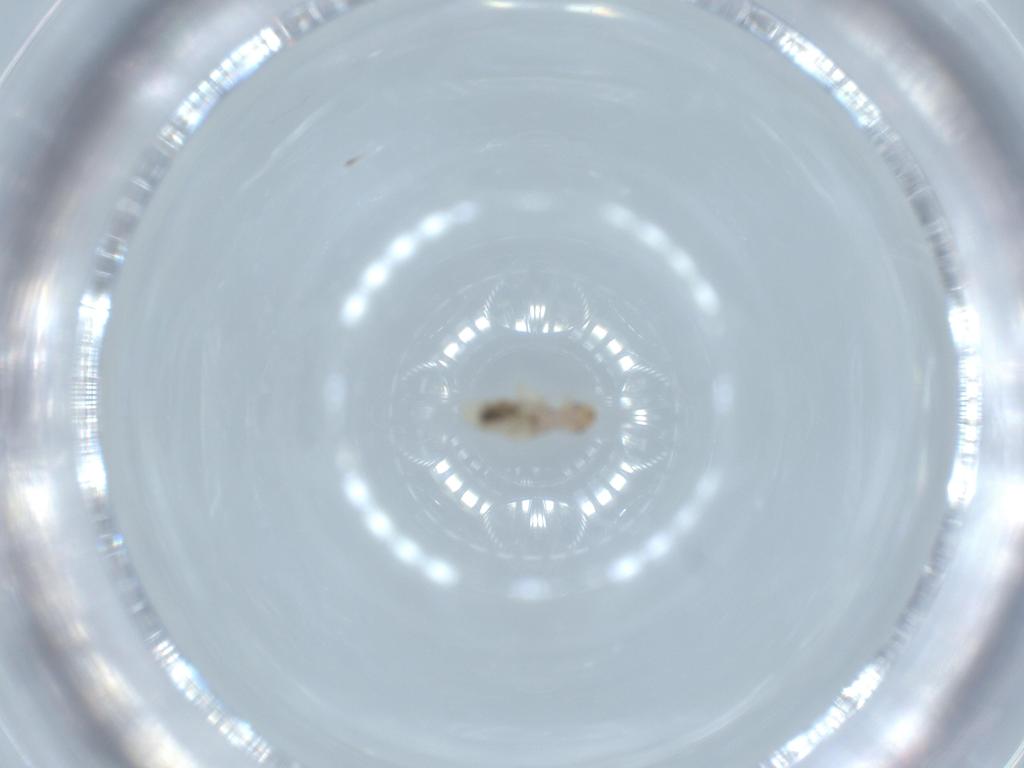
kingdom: Animalia
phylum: Arthropoda
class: Insecta
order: Psocodea
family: Liposcelididae
